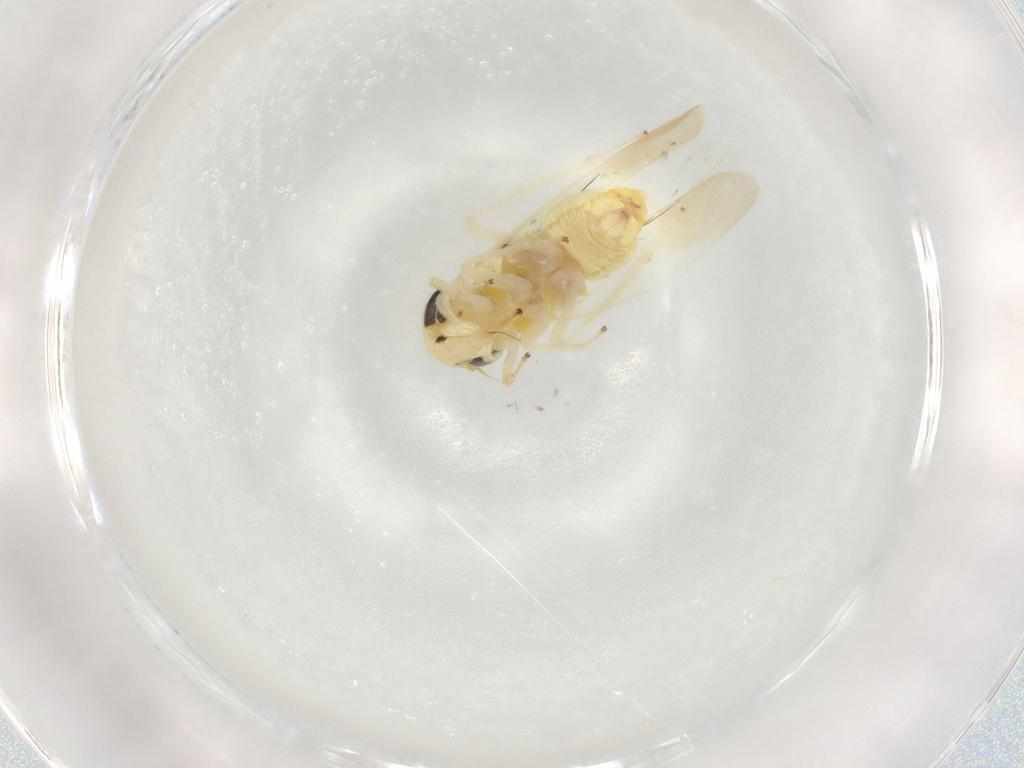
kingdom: Animalia
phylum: Arthropoda
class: Insecta
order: Hemiptera
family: Cicadellidae
